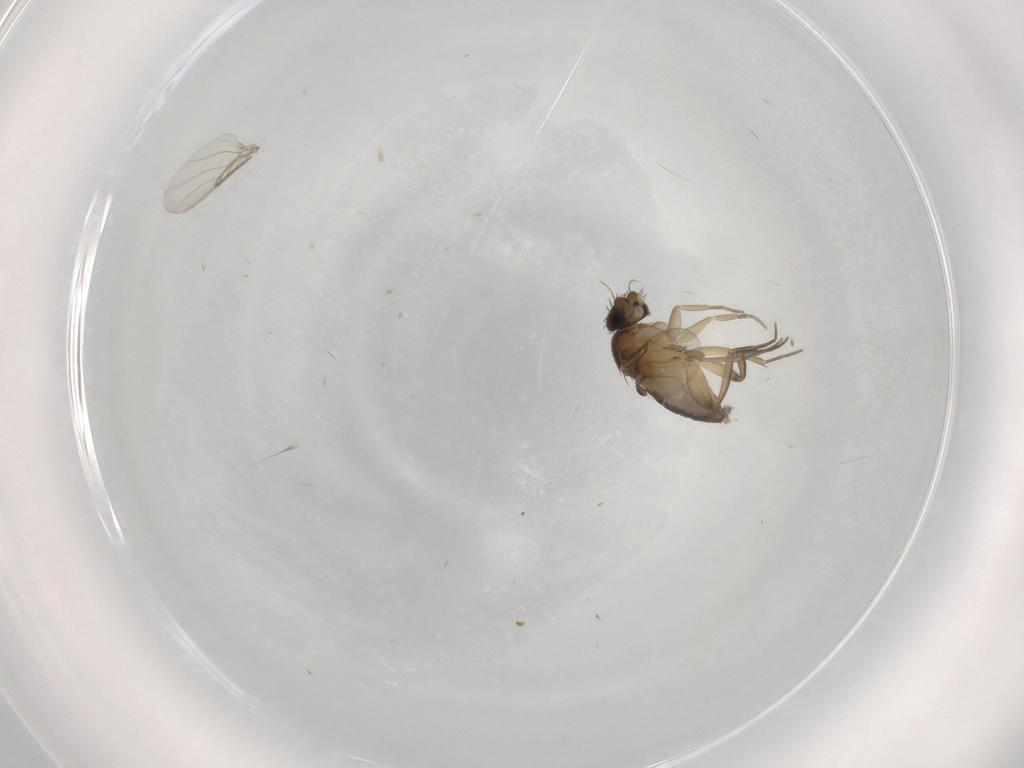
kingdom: Animalia
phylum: Arthropoda
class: Insecta
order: Diptera
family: Phoridae
